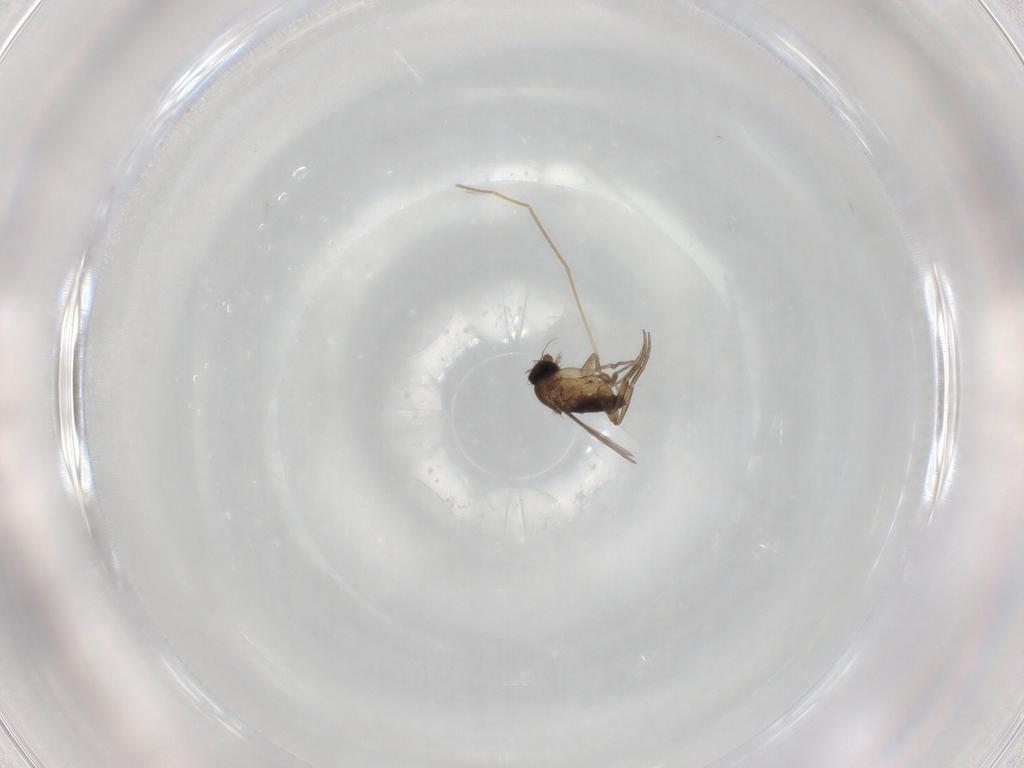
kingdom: Animalia
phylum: Arthropoda
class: Insecta
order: Diptera
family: Chironomidae
